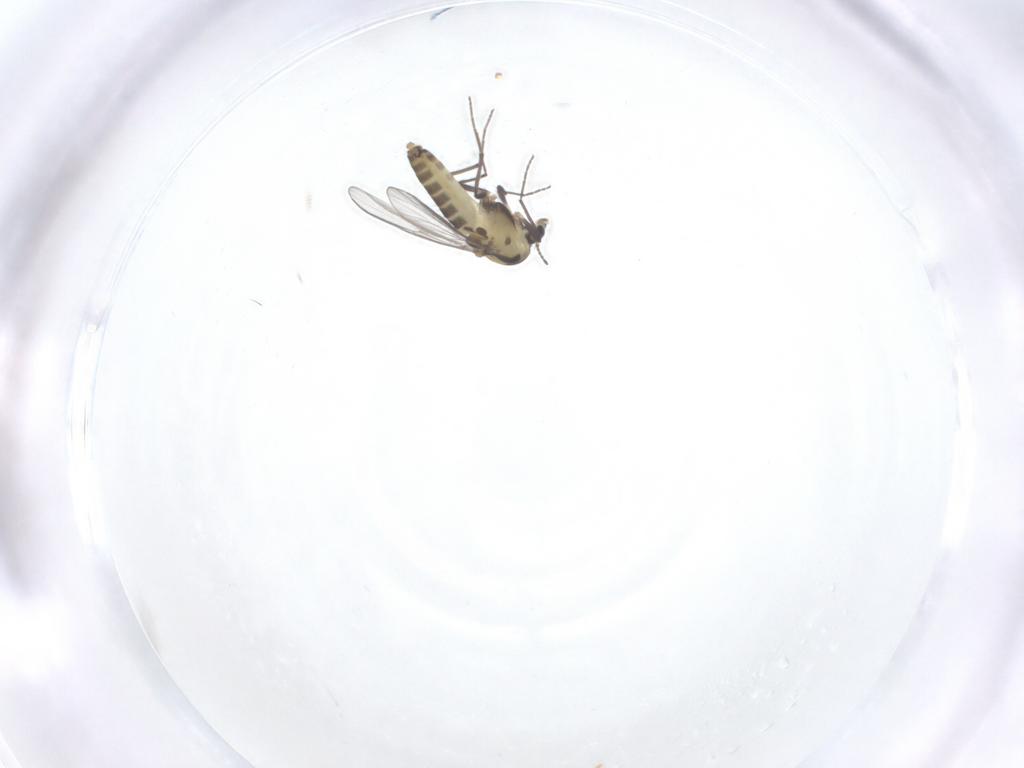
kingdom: Animalia
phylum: Arthropoda
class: Insecta
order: Diptera
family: Chironomidae
